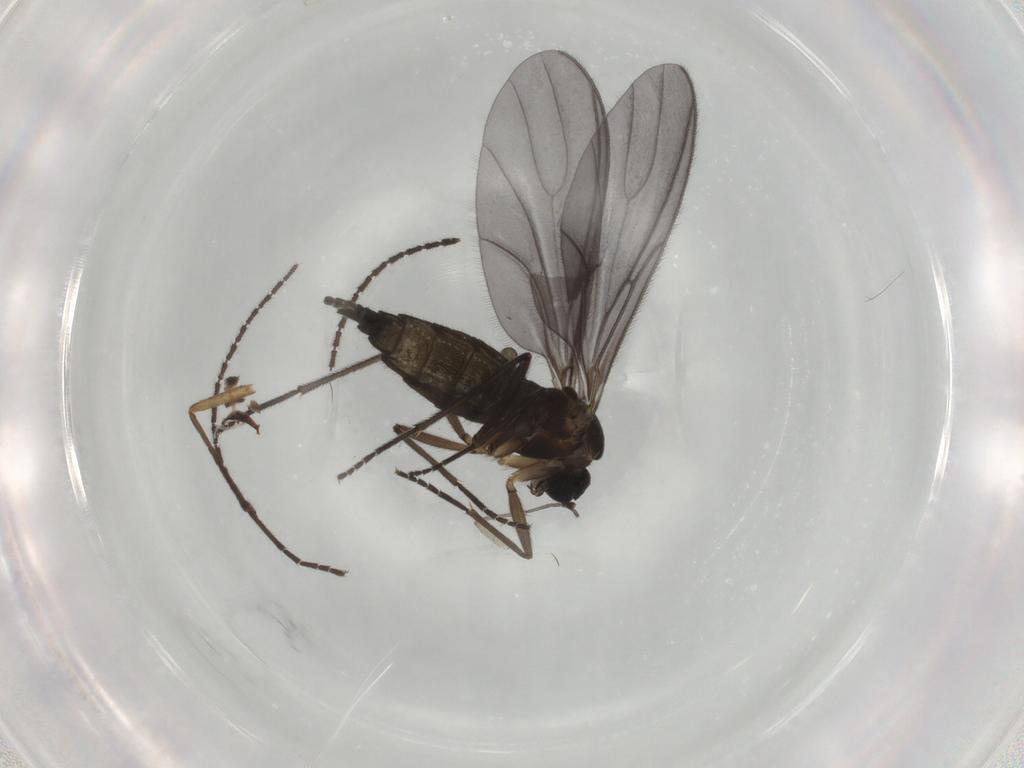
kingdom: Animalia
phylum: Arthropoda
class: Insecta
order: Diptera
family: Sciaridae
